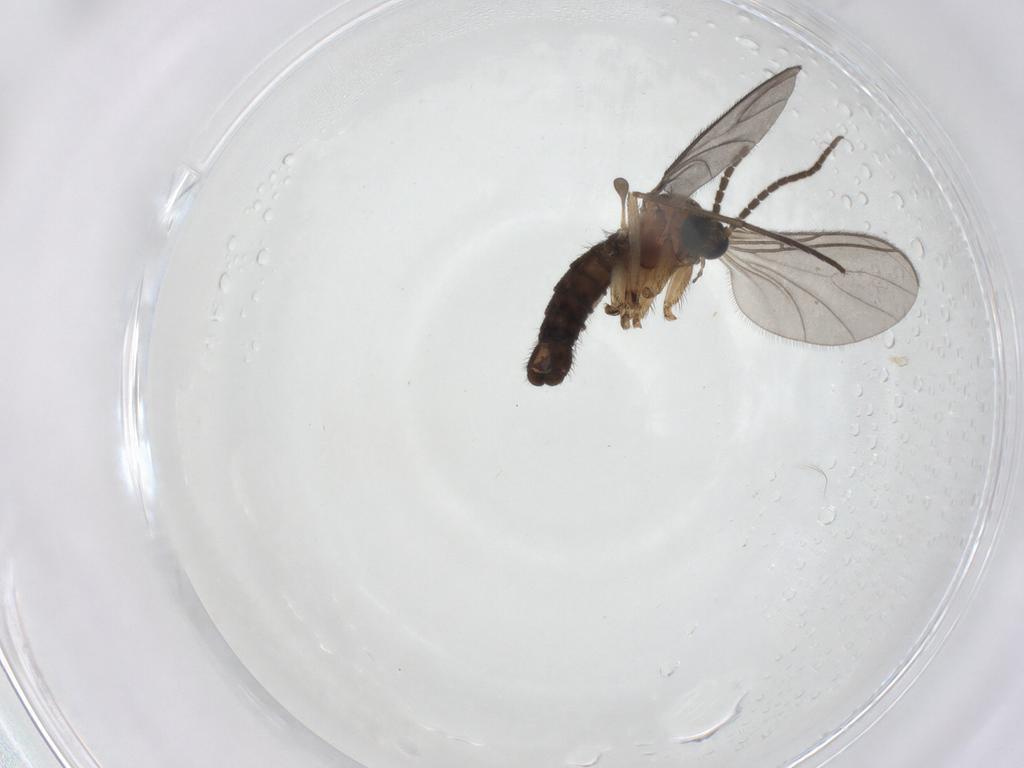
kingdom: Animalia
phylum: Arthropoda
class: Insecta
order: Diptera
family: Sciaridae
